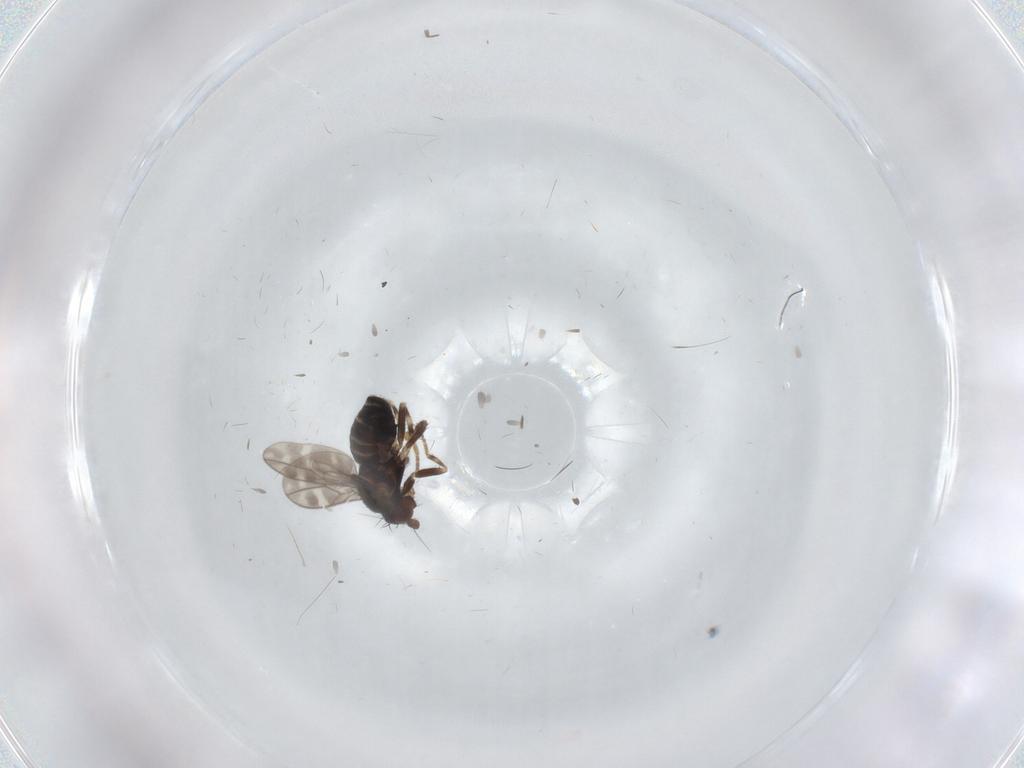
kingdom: Animalia
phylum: Arthropoda
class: Insecta
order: Diptera
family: Sphaeroceridae
